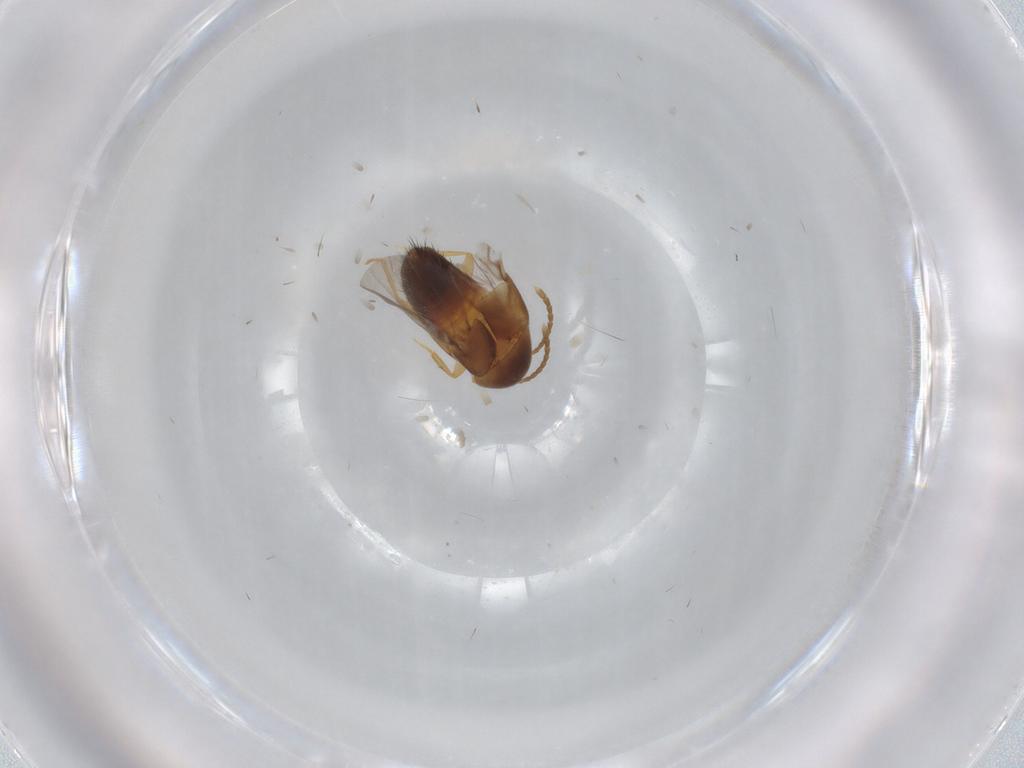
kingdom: Animalia
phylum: Arthropoda
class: Insecta
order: Coleoptera
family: Staphylinidae
